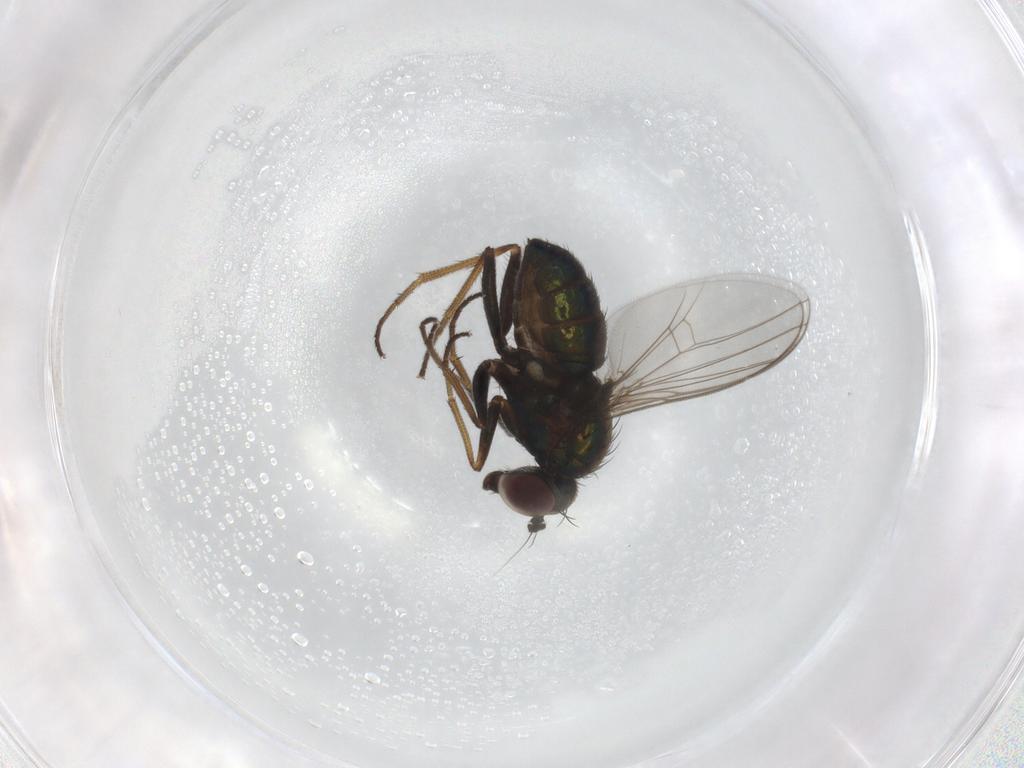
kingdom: Animalia
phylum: Arthropoda
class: Insecta
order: Diptera
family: Dolichopodidae
